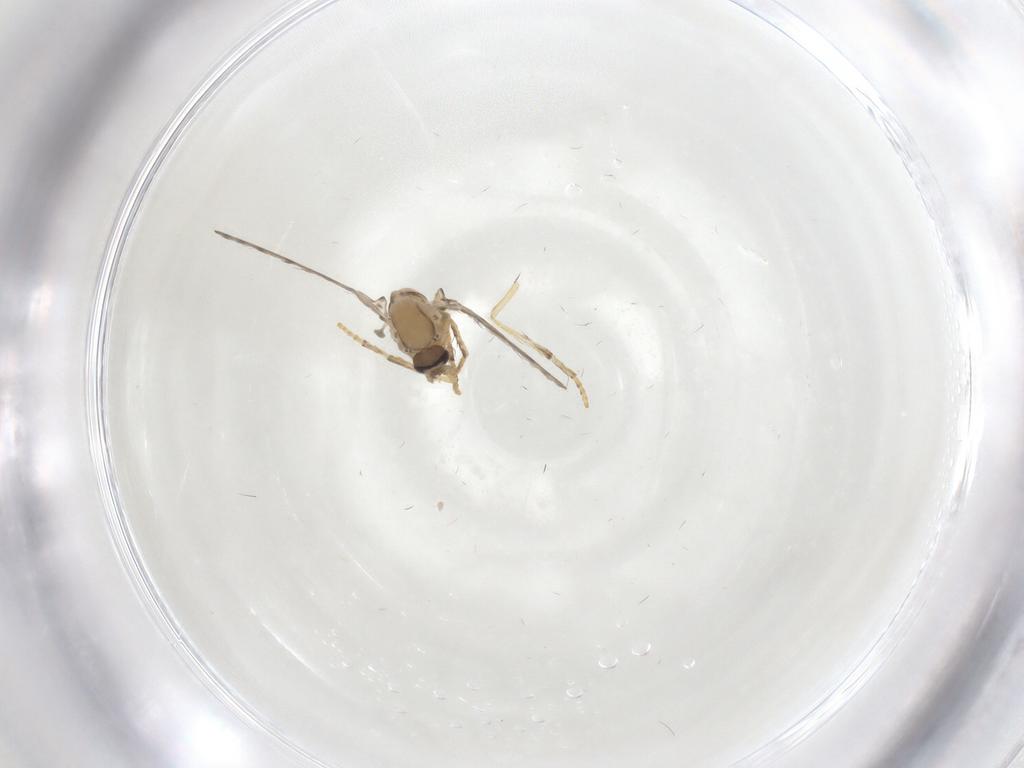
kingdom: Animalia
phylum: Arthropoda
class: Insecta
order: Diptera
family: Psychodidae
